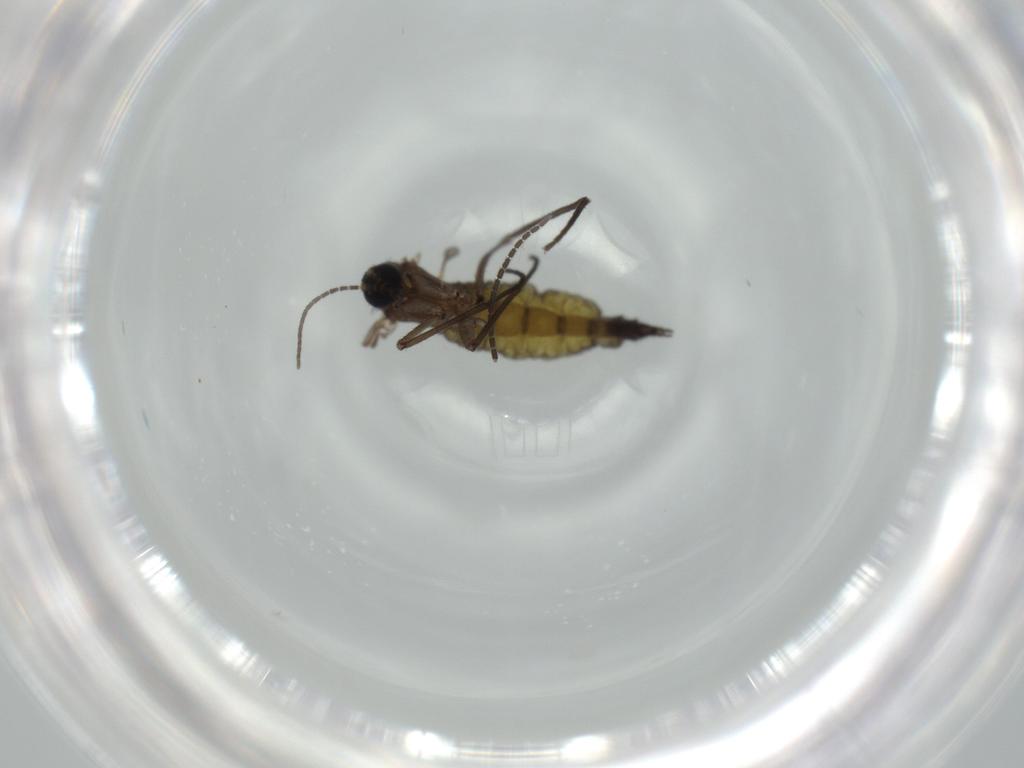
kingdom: Animalia
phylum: Arthropoda
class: Insecta
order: Diptera
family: Sciaridae
